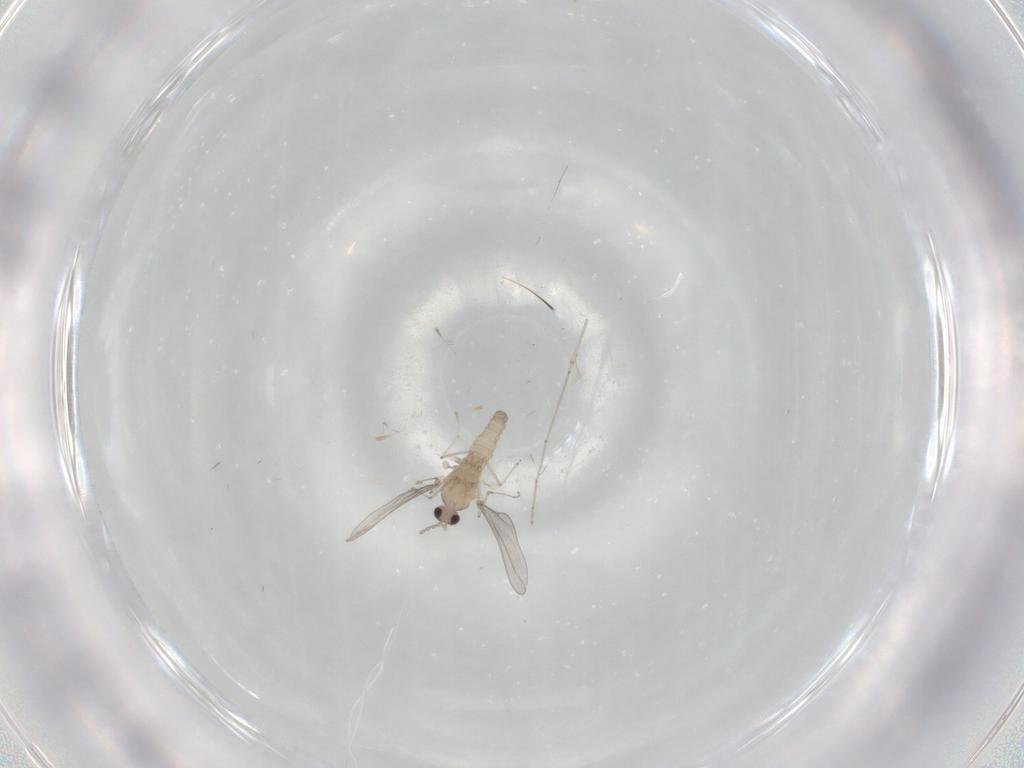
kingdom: Animalia
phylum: Arthropoda
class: Insecta
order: Diptera
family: Cecidomyiidae
